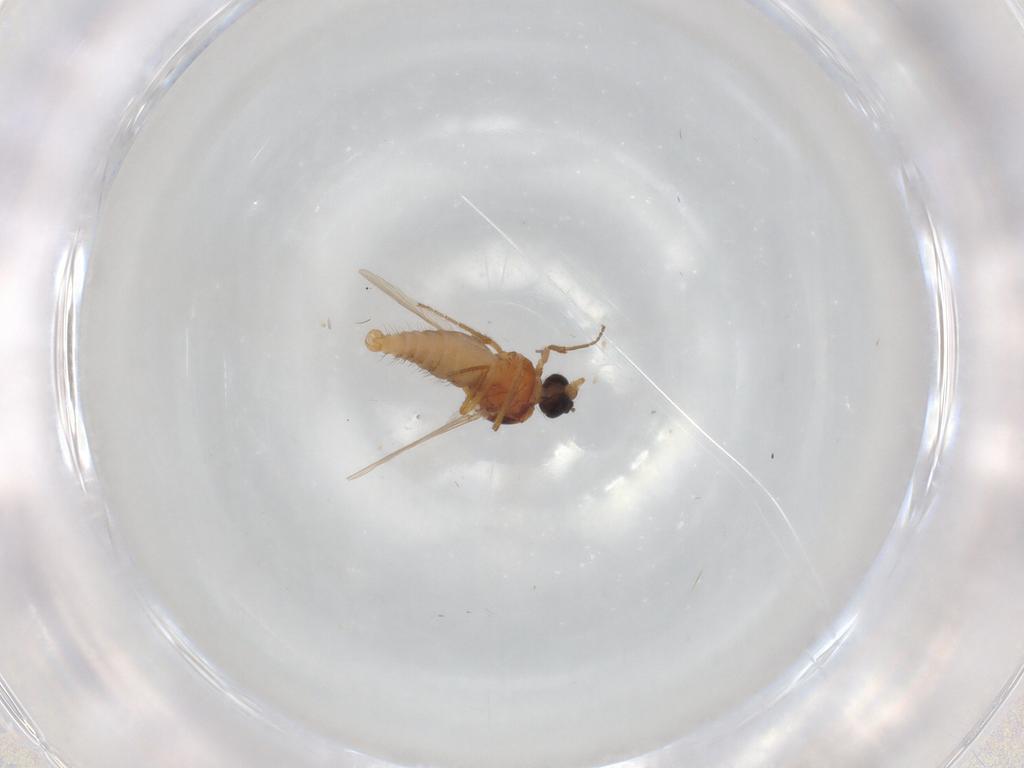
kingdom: Animalia
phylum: Arthropoda
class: Insecta
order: Diptera
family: Ceratopogonidae
